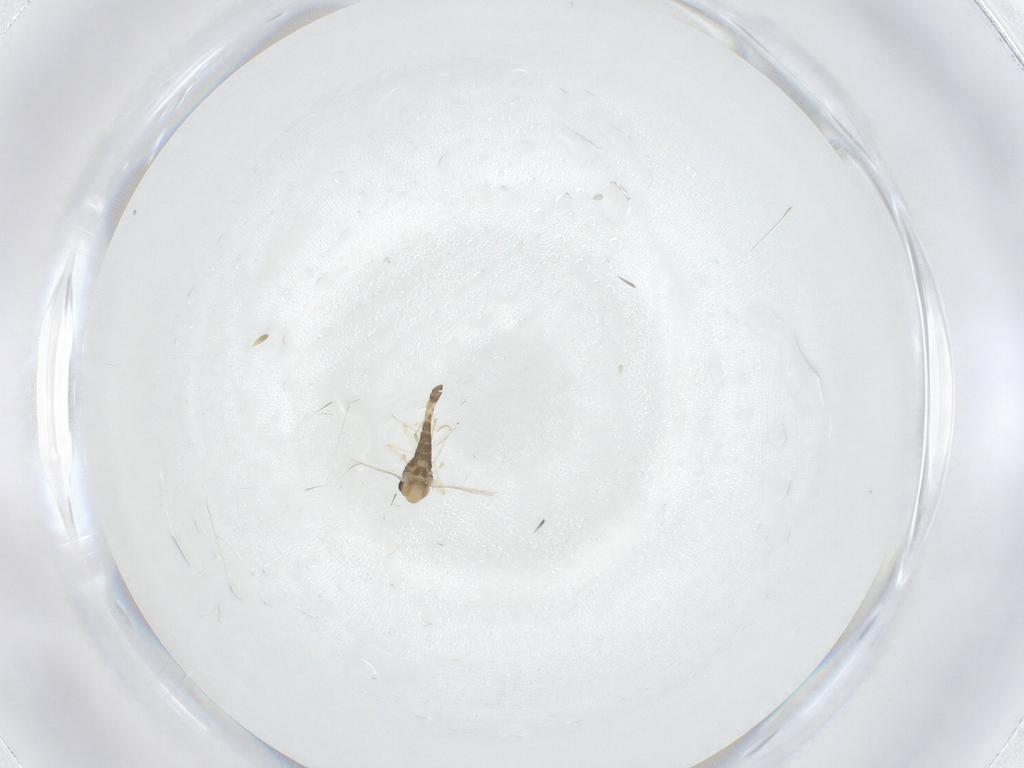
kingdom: Animalia
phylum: Arthropoda
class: Insecta
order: Diptera
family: Chironomidae
